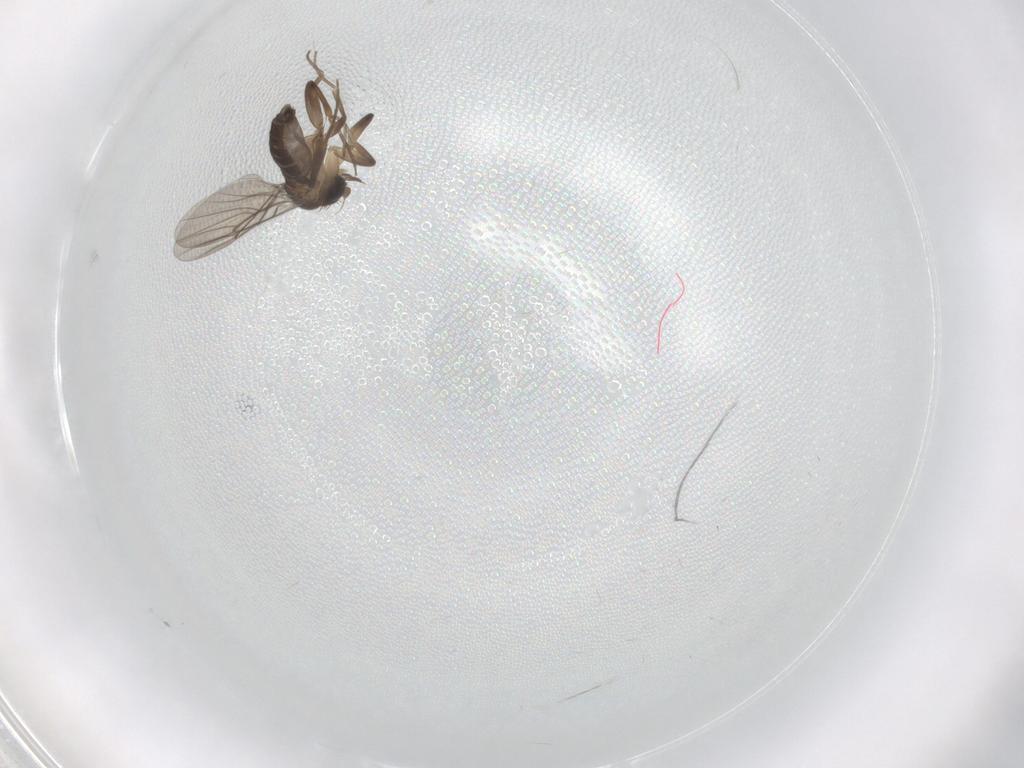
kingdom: Animalia
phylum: Arthropoda
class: Insecta
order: Diptera
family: Phoridae
